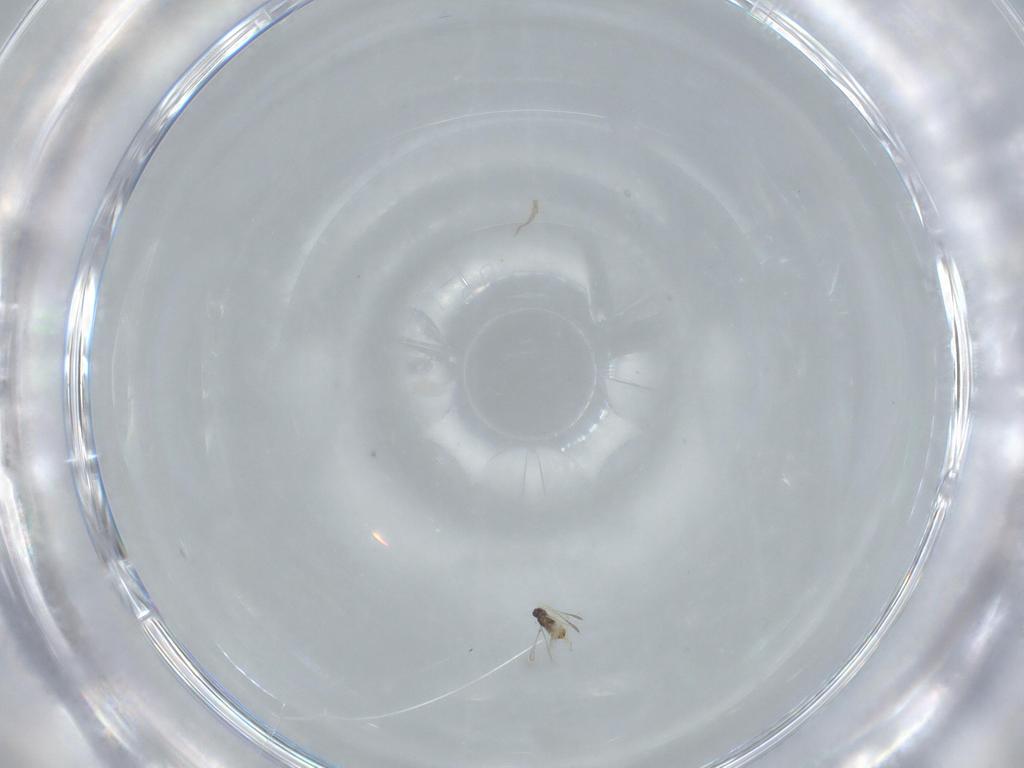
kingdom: Animalia
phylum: Arthropoda
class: Insecta
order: Hymenoptera
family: Mymaridae
